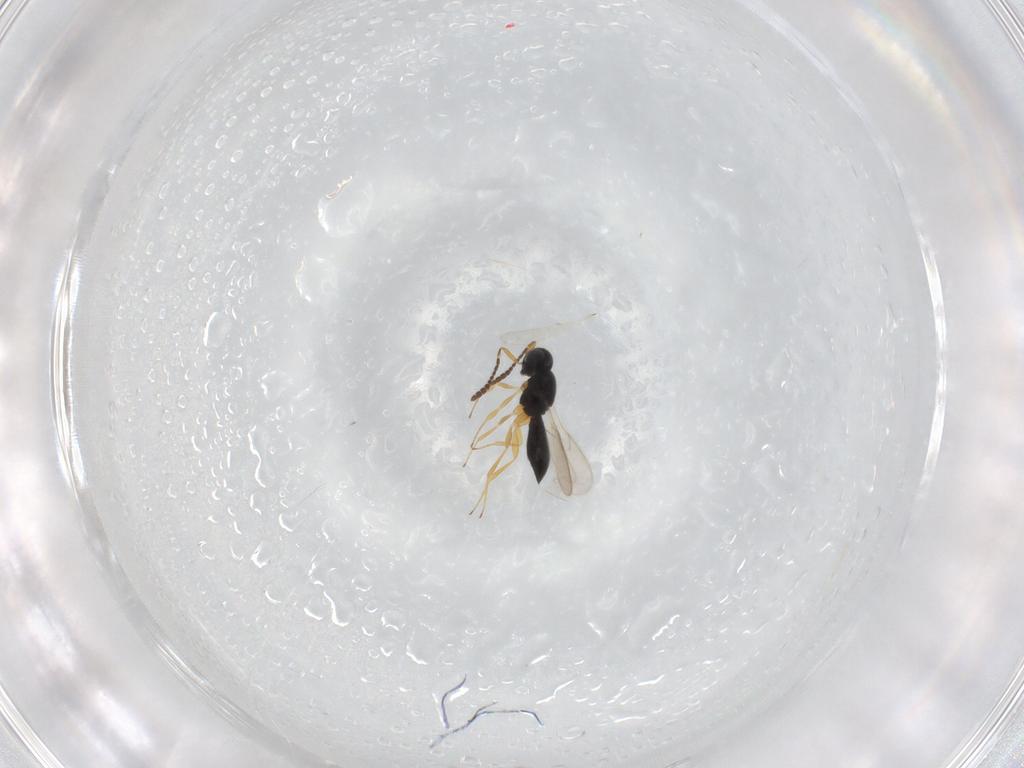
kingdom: Animalia
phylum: Arthropoda
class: Insecta
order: Hymenoptera
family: Scelionidae
